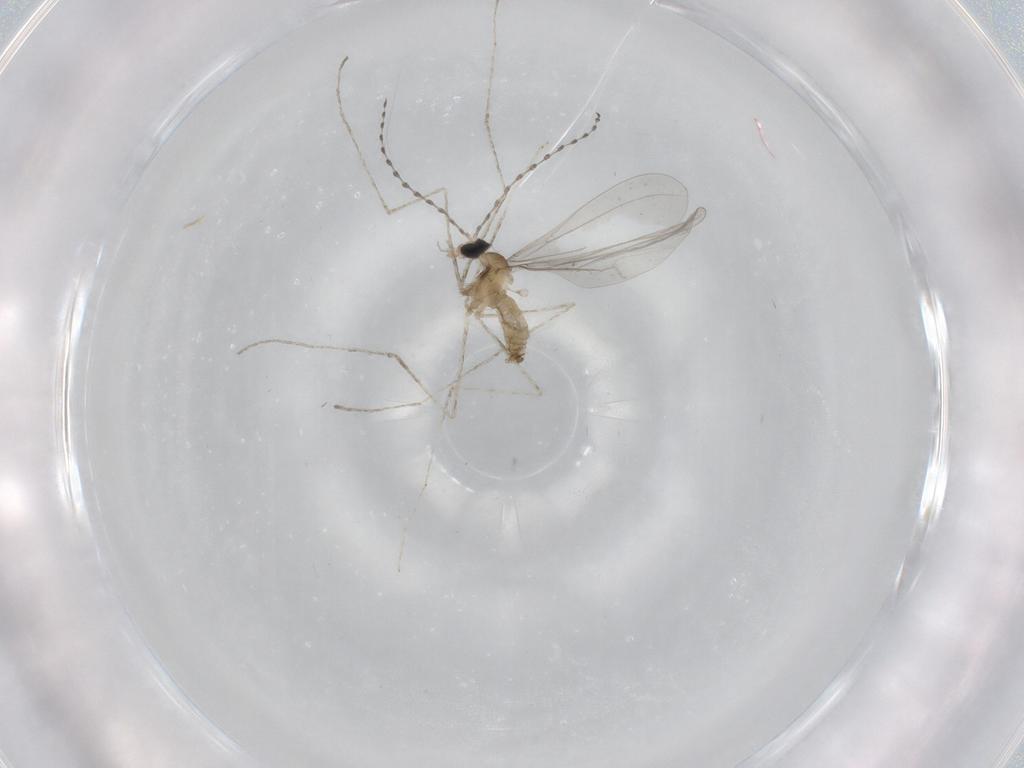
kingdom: Animalia
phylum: Arthropoda
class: Insecta
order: Diptera
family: Cecidomyiidae
